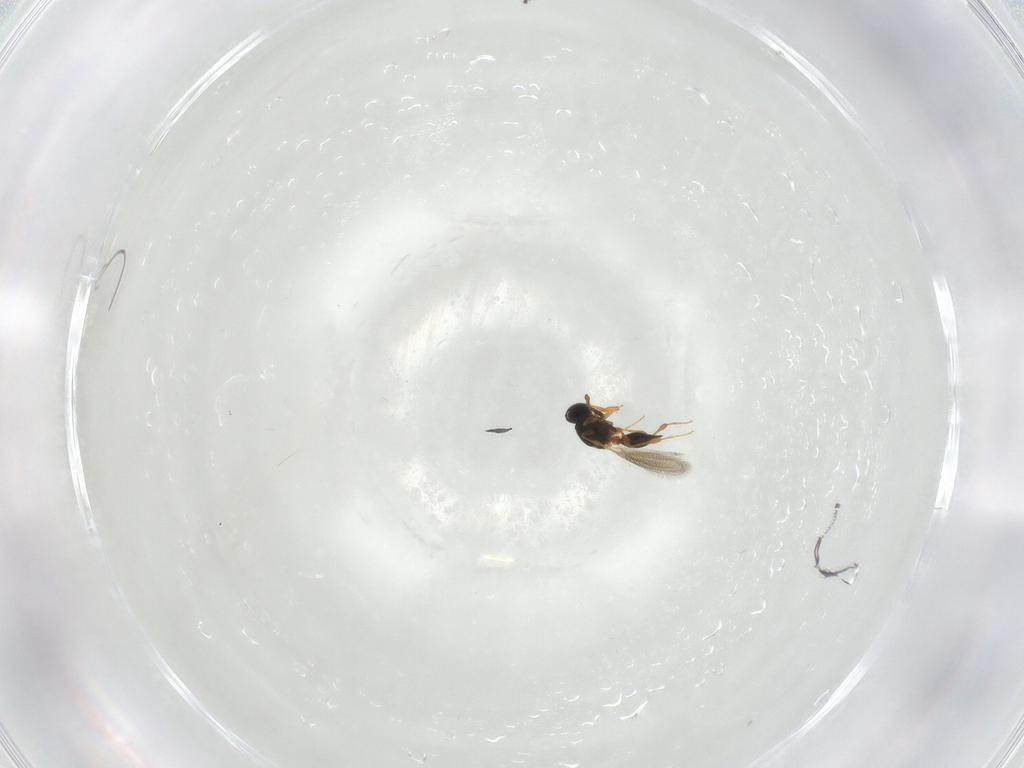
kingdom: Animalia
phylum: Arthropoda
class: Insecta
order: Hymenoptera
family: Platygastridae
